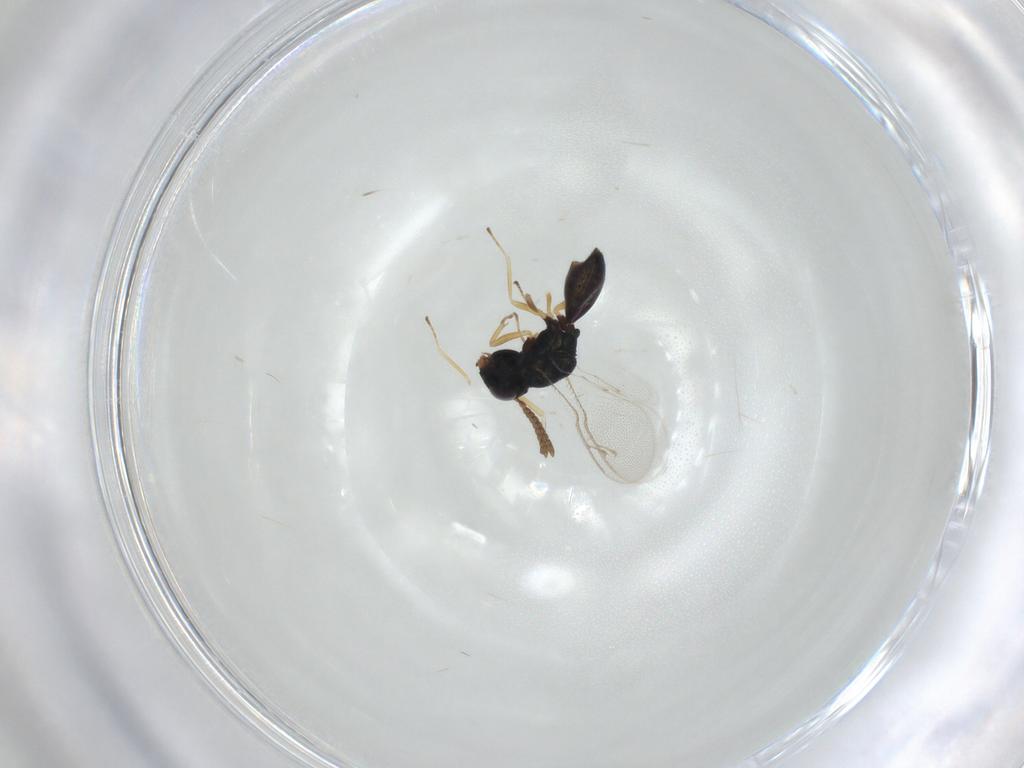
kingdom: Animalia
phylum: Arthropoda
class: Insecta
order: Hymenoptera
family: Pteromalidae
